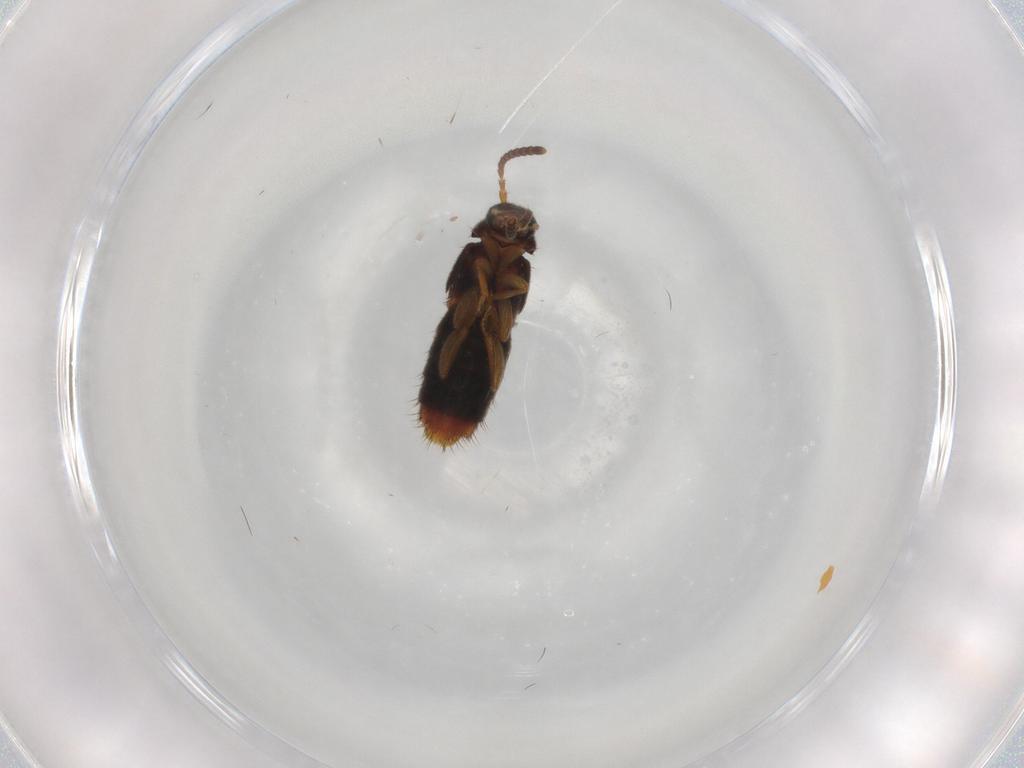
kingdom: Animalia
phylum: Arthropoda
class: Insecta
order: Coleoptera
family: Staphylinidae
